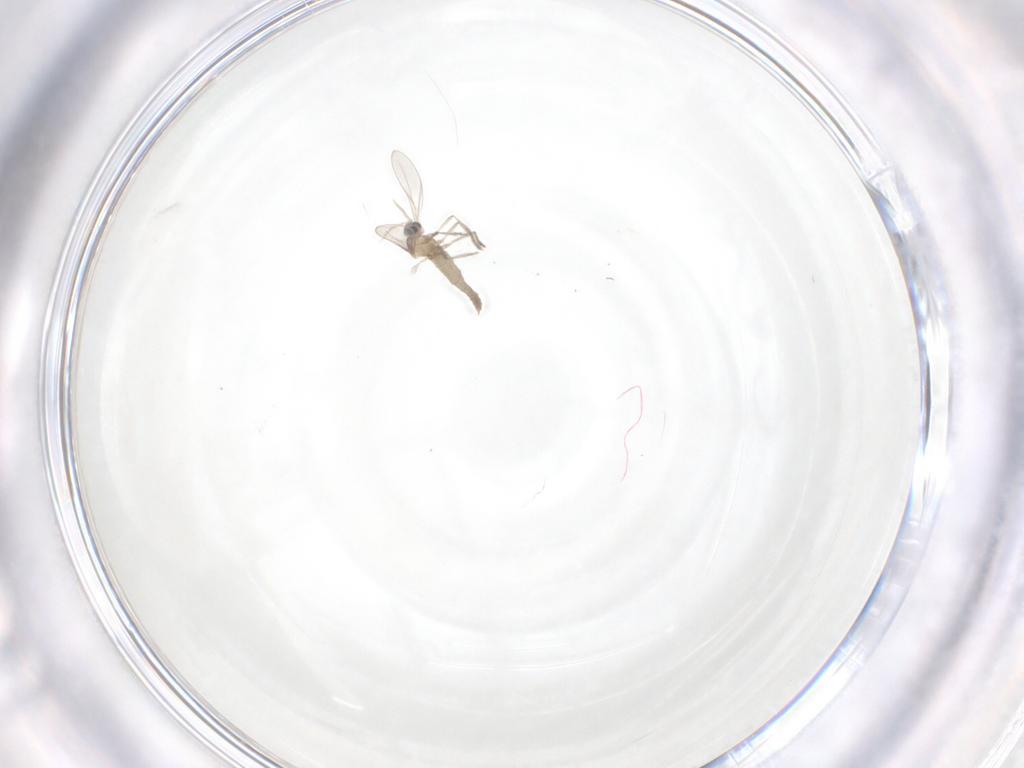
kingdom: Animalia
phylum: Arthropoda
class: Insecta
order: Diptera
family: Cecidomyiidae
